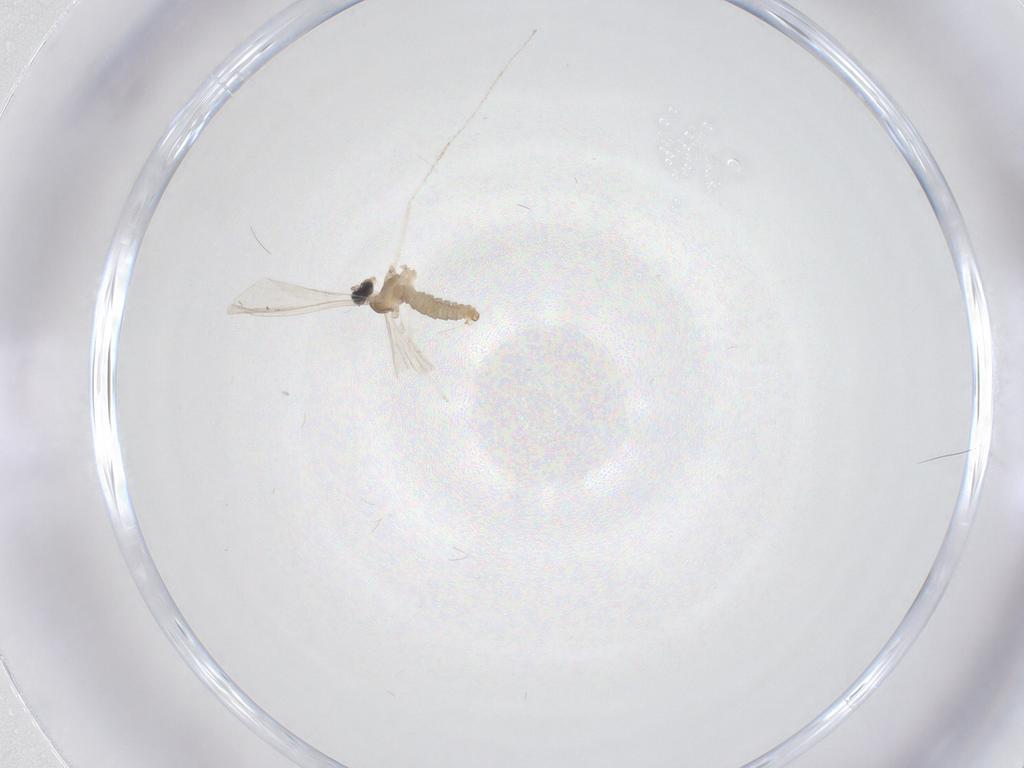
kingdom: Animalia
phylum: Arthropoda
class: Insecta
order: Diptera
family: Cecidomyiidae
